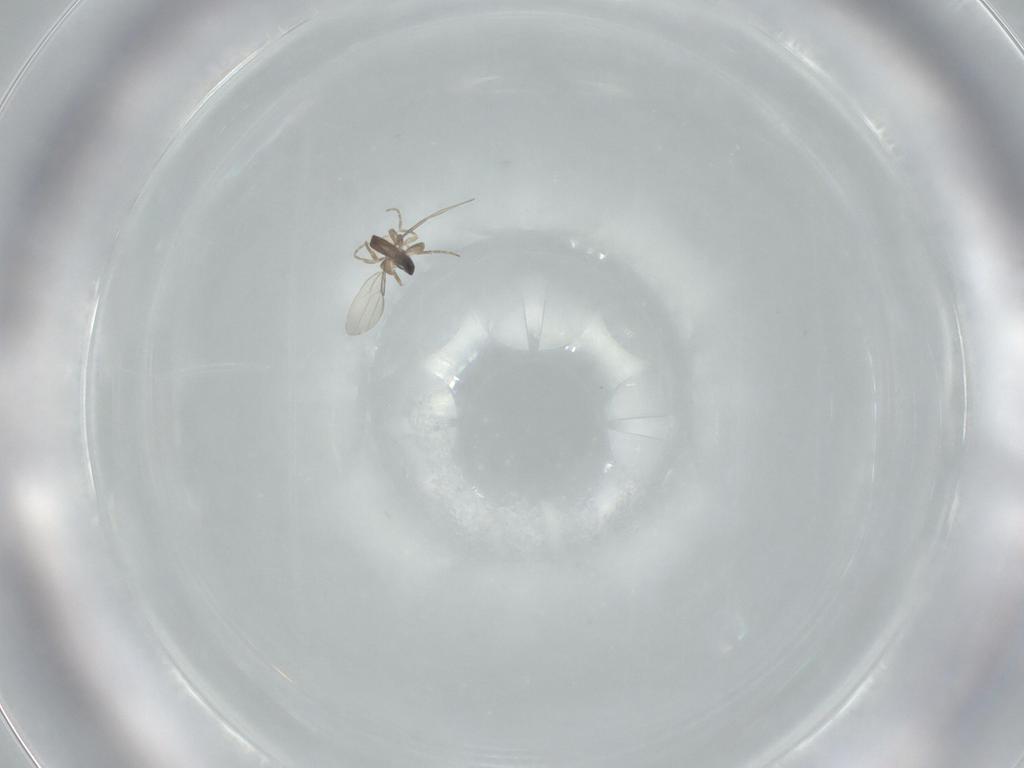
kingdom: Animalia
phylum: Arthropoda
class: Insecta
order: Diptera
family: Phoridae
